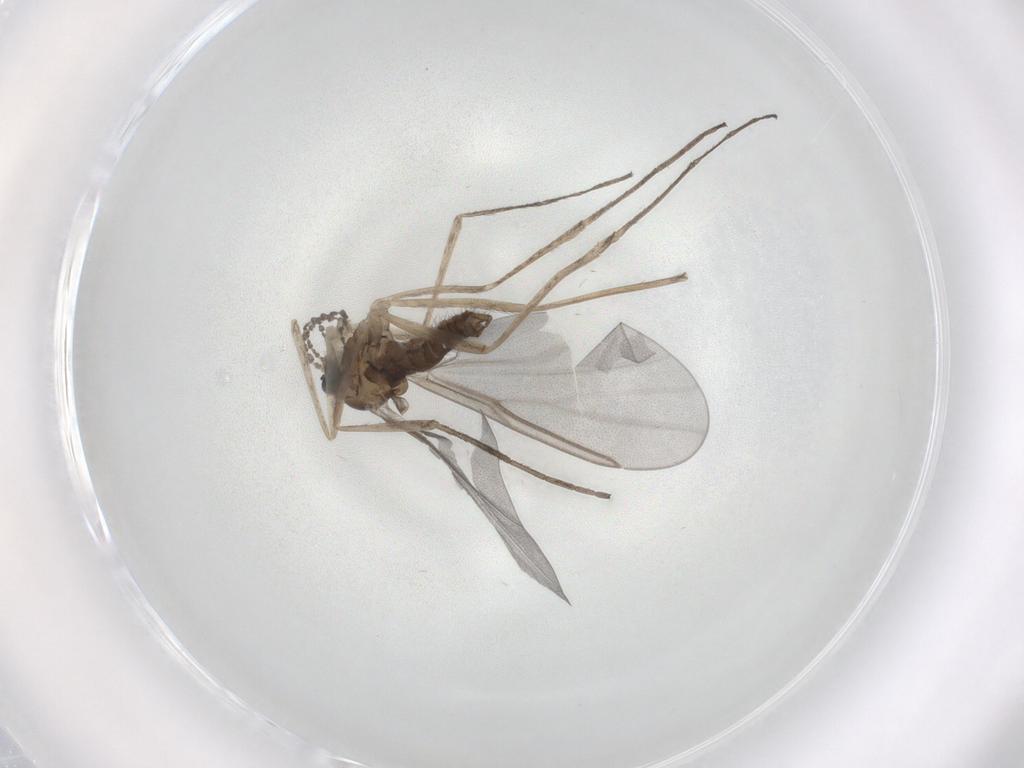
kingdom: Animalia
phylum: Arthropoda
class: Insecta
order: Diptera
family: Cecidomyiidae
